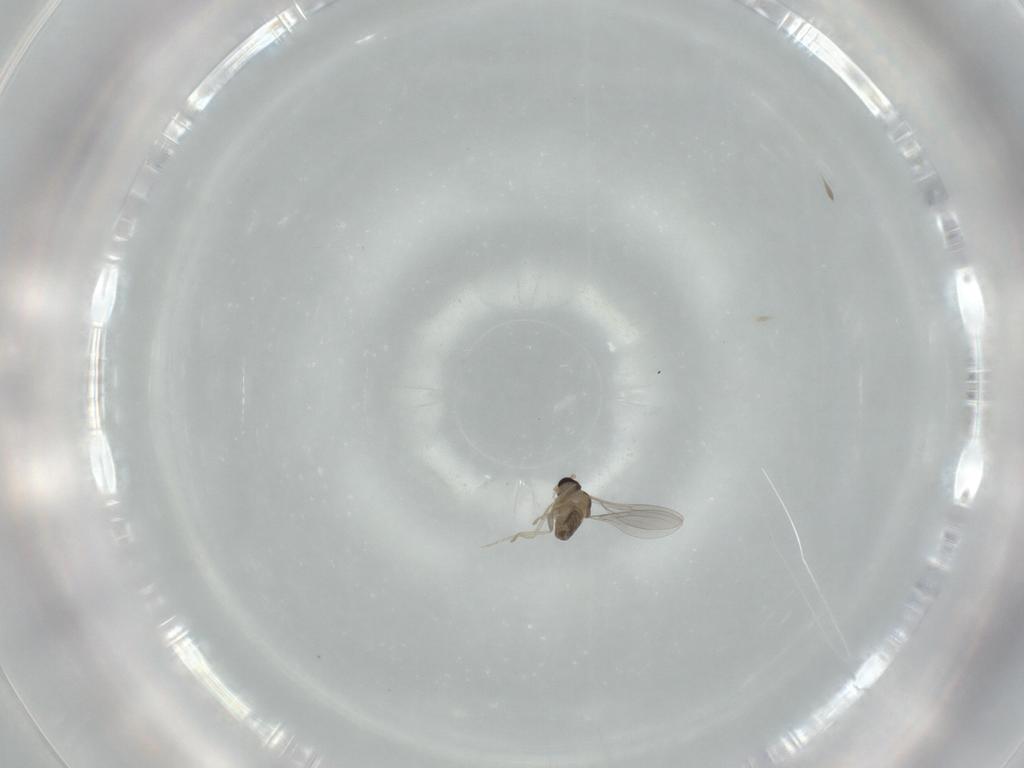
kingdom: Animalia
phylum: Arthropoda
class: Insecta
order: Diptera
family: Cecidomyiidae
